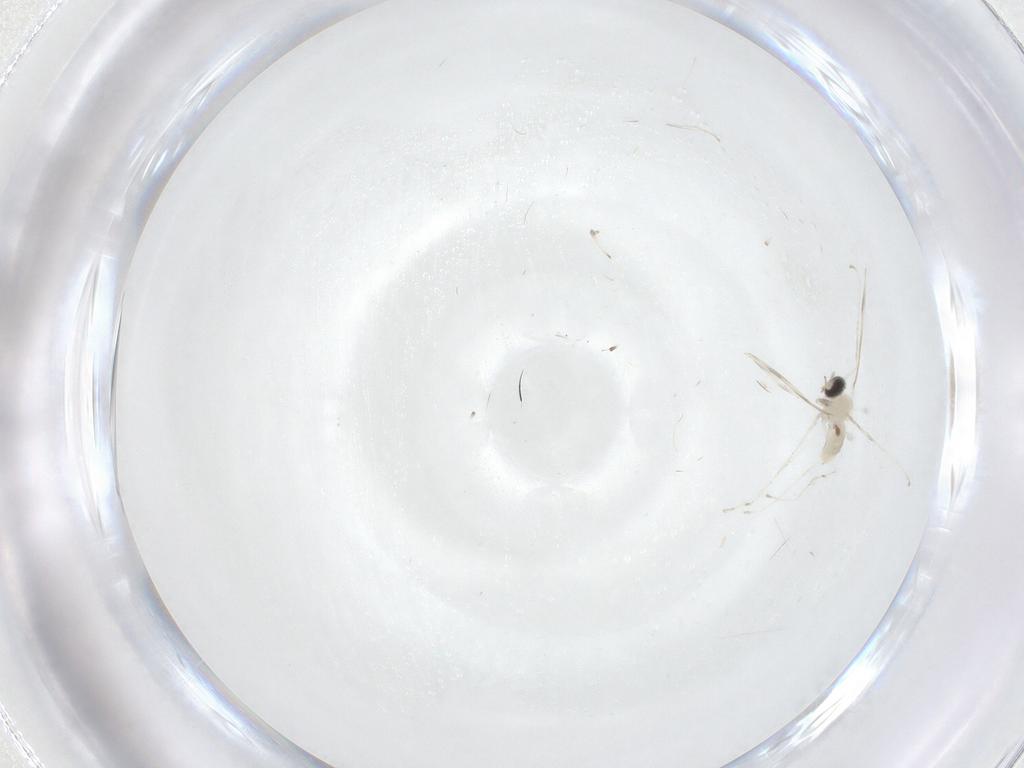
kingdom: Animalia
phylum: Arthropoda
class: Insecta
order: Diptera
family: Cecidomyiidae
